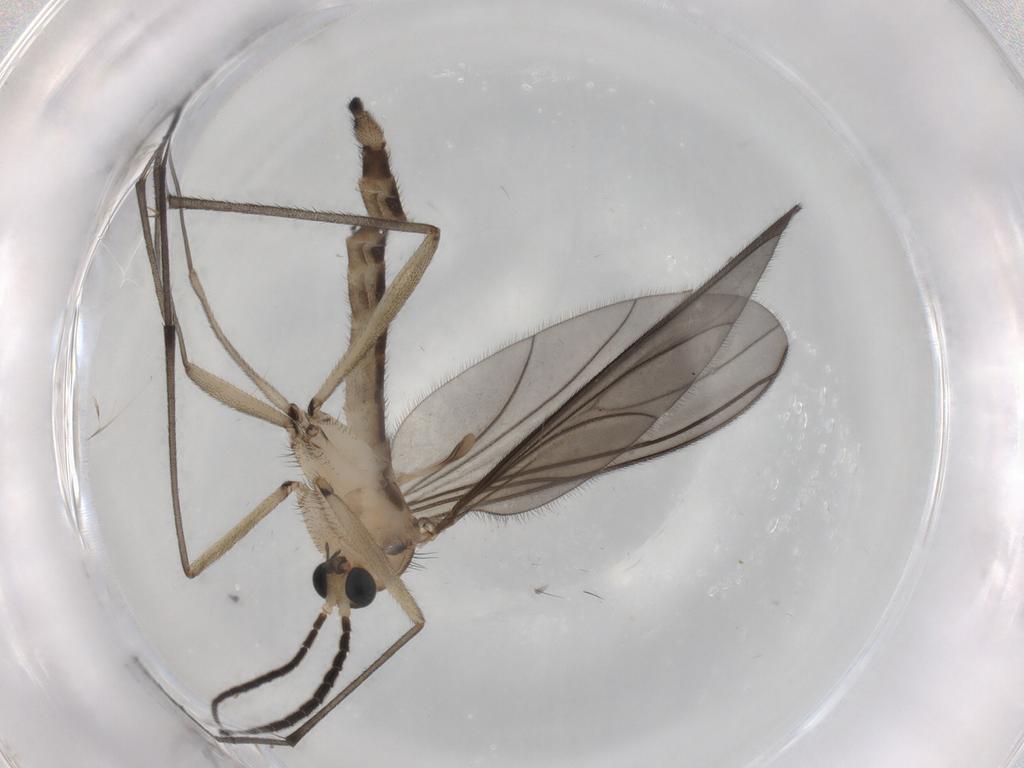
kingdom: Animalia
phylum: Arthropoda
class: Insecta
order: Diptera
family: Sciaridae
